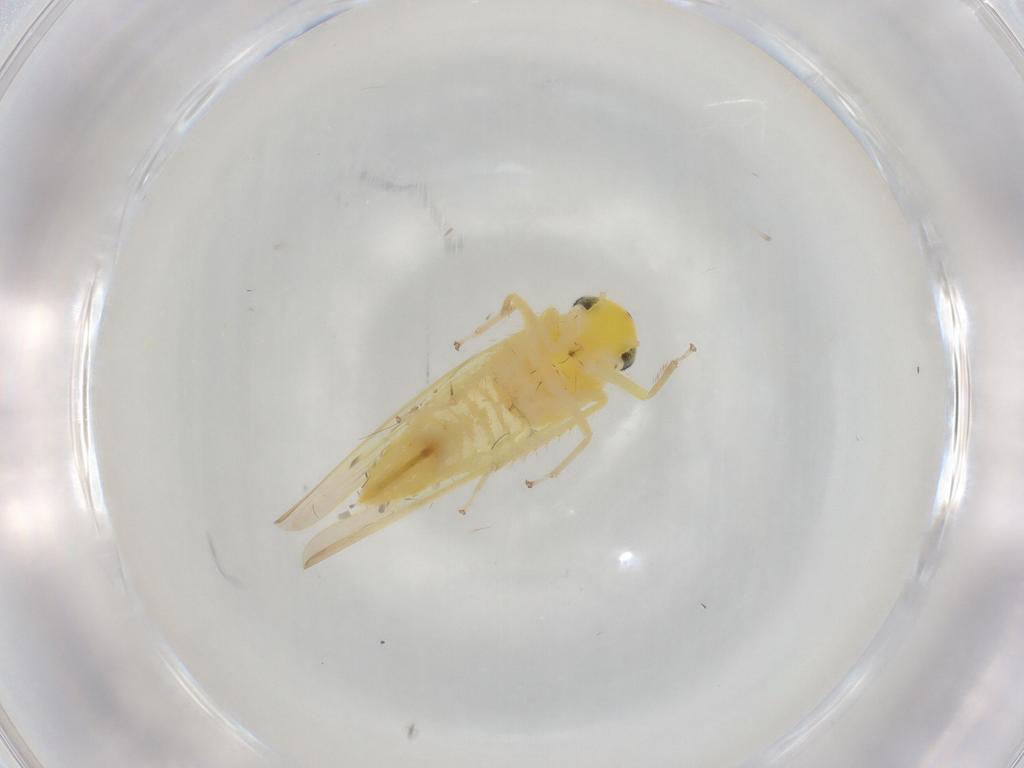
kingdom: Animalia
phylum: Arthropoda
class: Insecta
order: Hemiptera
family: Cicadellidae
